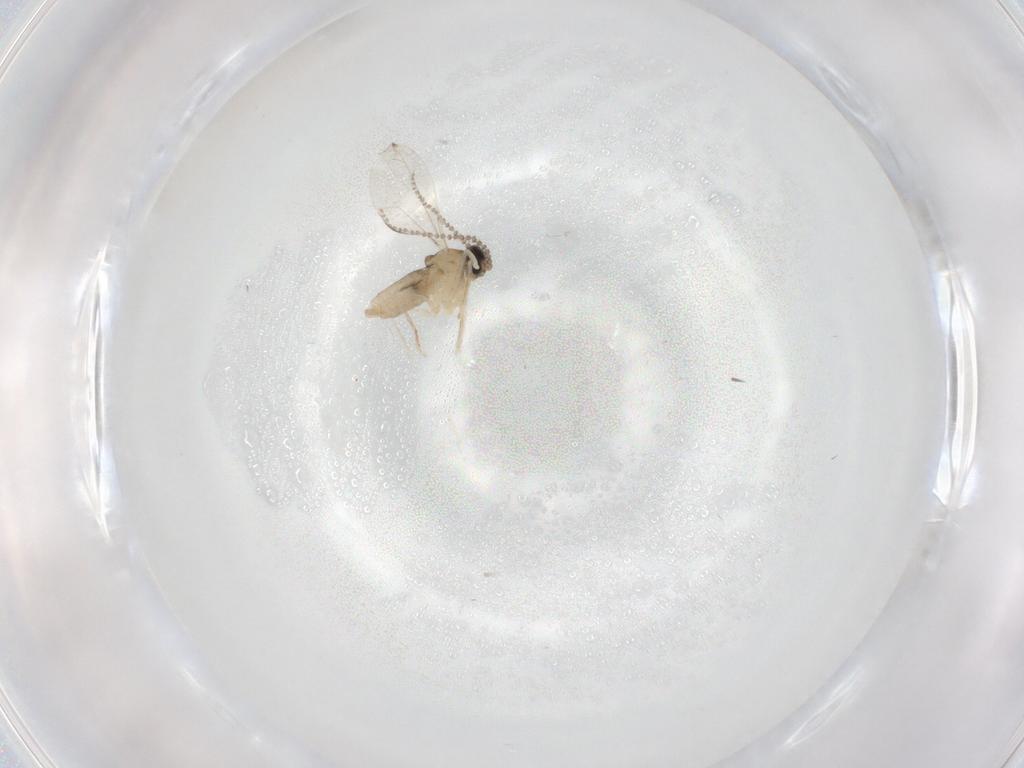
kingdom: Animalia
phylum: Arthropoda
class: Insecta
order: Diptera
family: Cecidomyiidae
